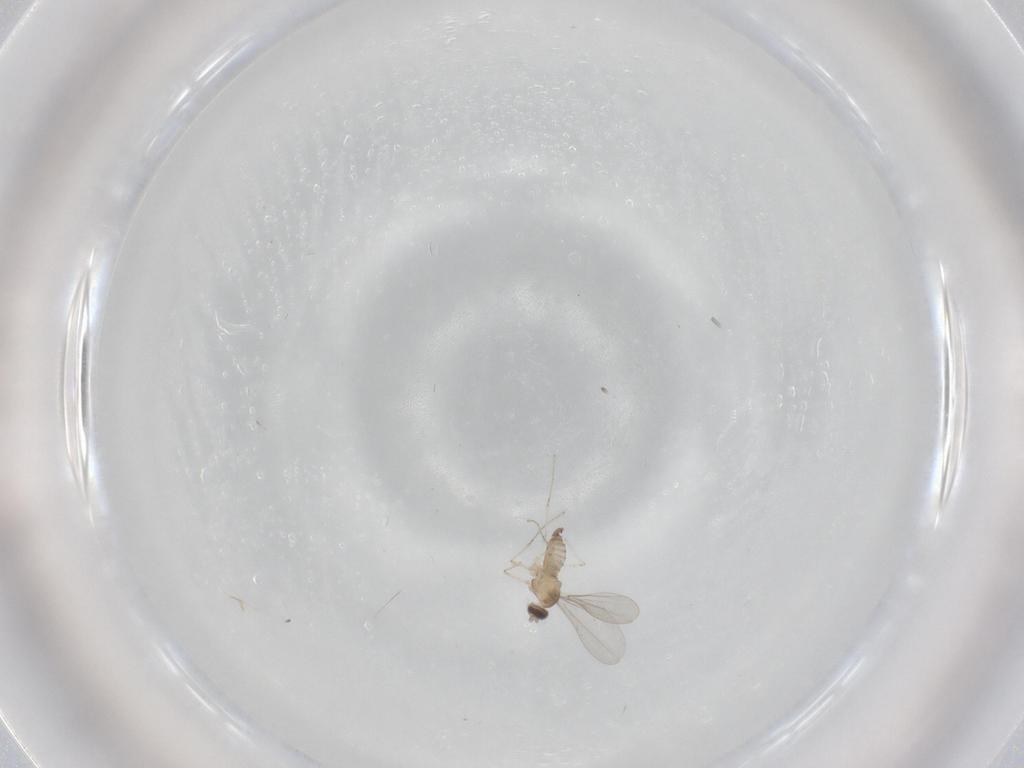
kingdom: Animalia
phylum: Arthropoda
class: Insecta
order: Diptera
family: Cecidomyiidae
